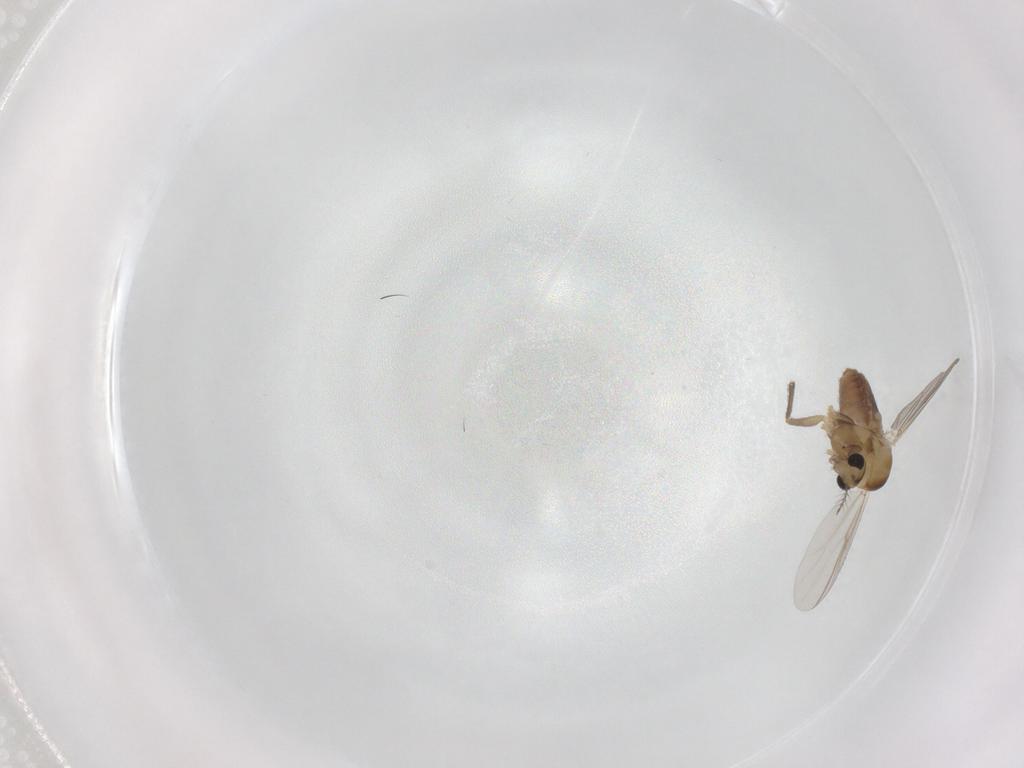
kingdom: Animalia
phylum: Arthropoda
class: Insecta
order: Diptera
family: Chironomidae
